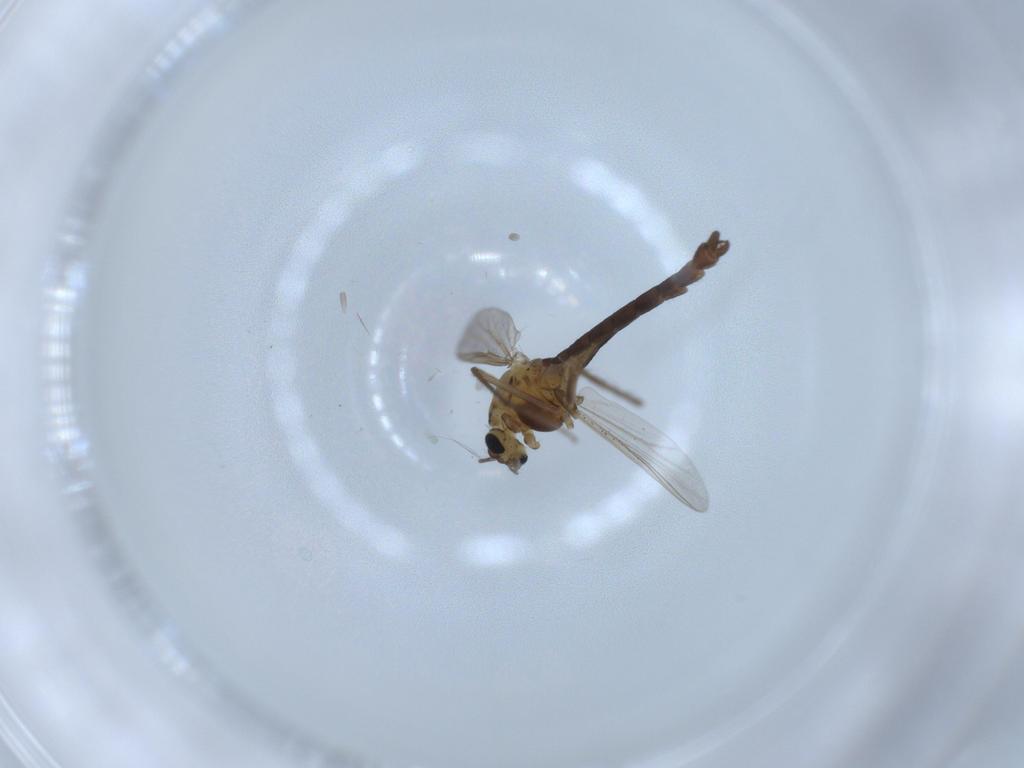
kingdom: Animalia
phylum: Arthropoda
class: Insecta
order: Diptera
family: Chironomidae
